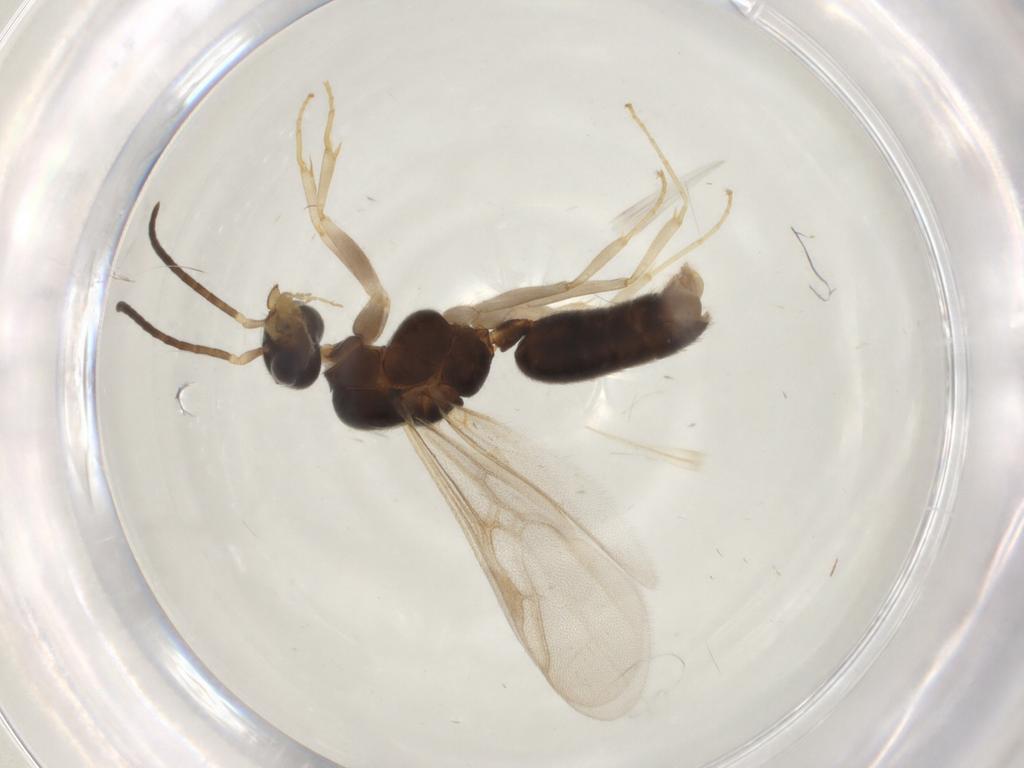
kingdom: Animalia
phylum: Arthropoda
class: Insecta
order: Hymenoptera
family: Formicidae
